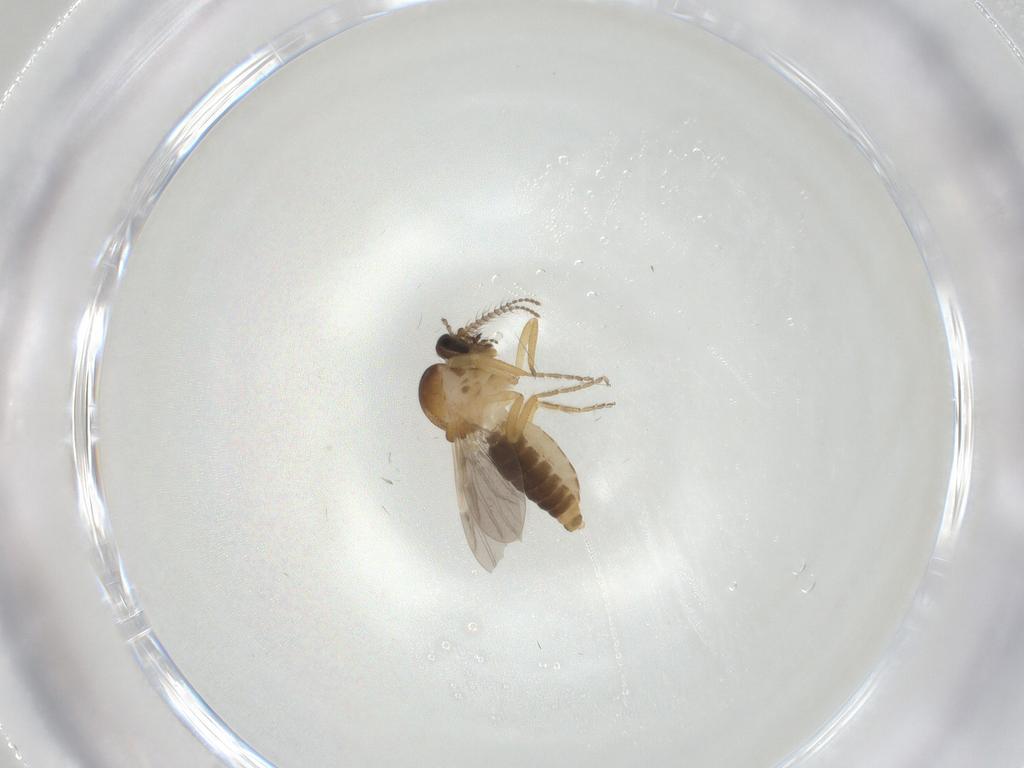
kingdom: Animalia
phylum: Arthropoda
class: Insecta
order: Diptera
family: Ceratopogonidae
